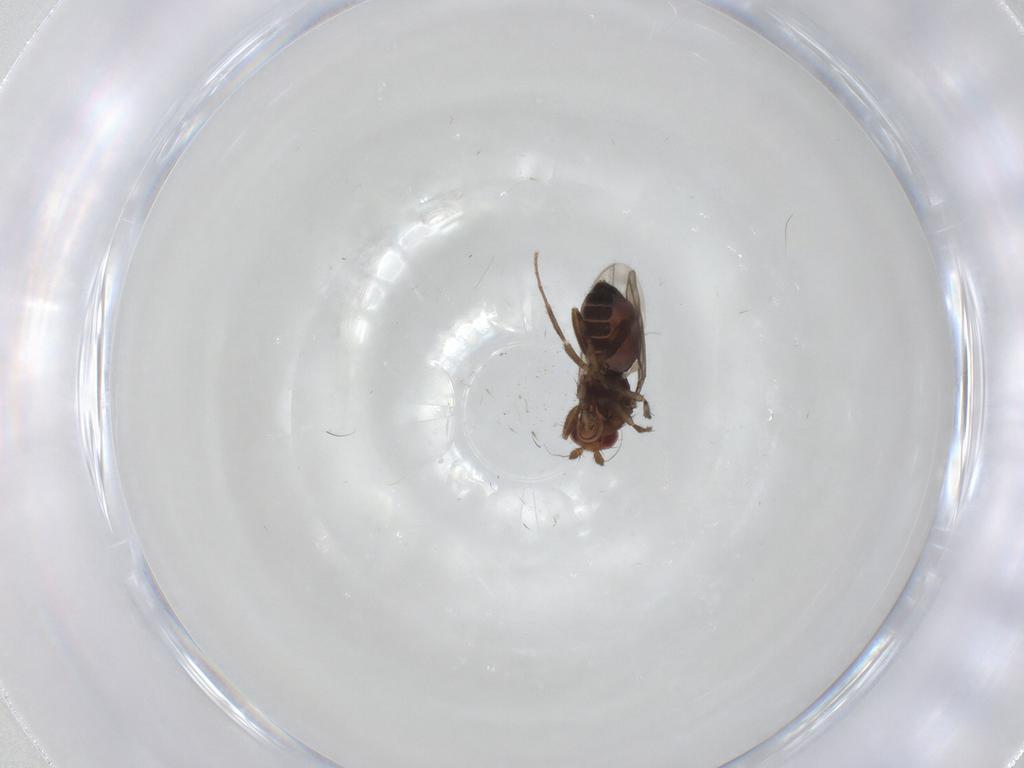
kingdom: Animalia
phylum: Arthropoda
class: Insecta
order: Diptera
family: Sphaeroceridae
